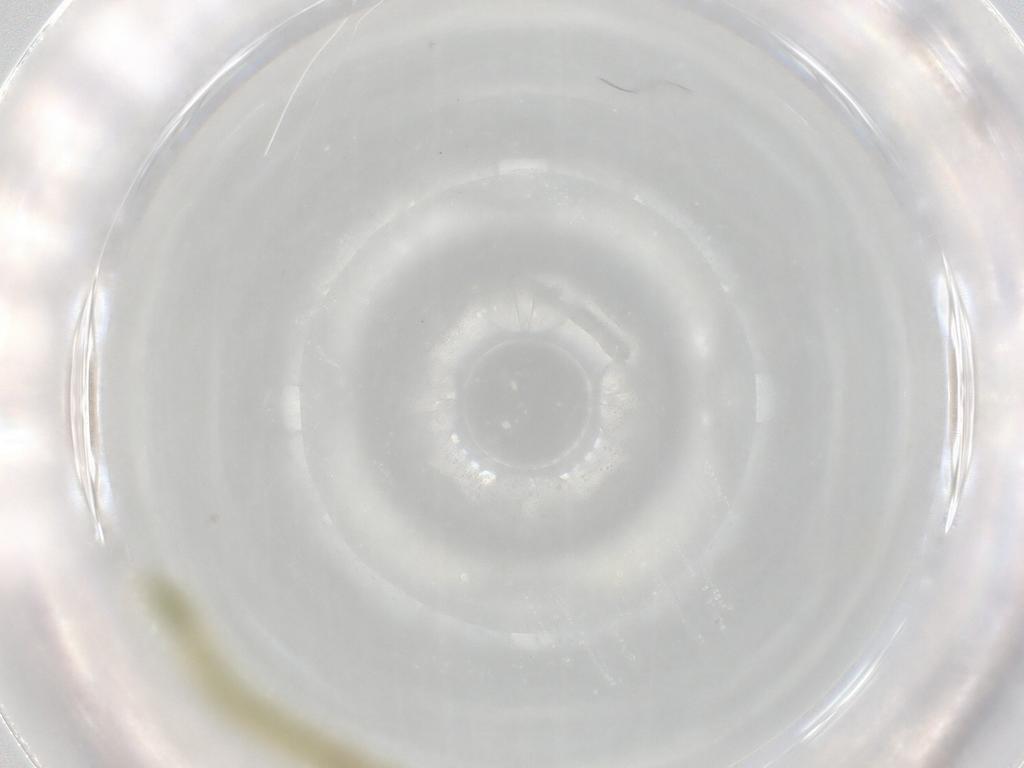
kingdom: Animalia
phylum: Arthropoda
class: Insecta
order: Diptera
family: Chironomidae
